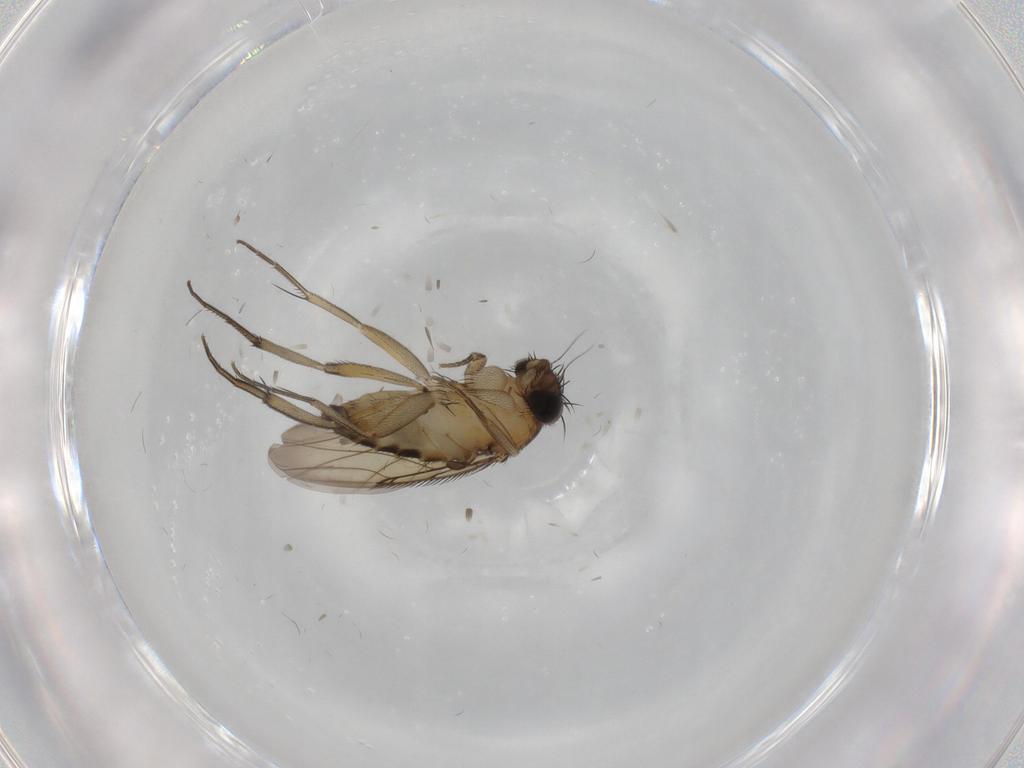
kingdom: Animalia
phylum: Arthropoda
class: Insecta
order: Diptera
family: Phoridae
